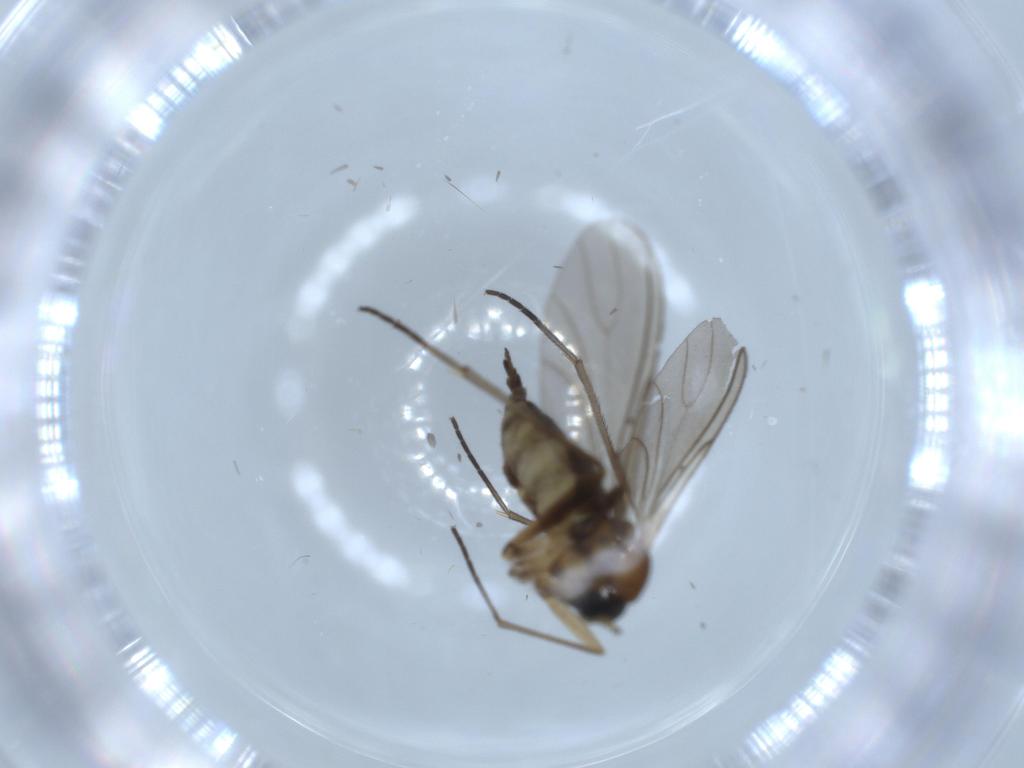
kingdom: Animalia
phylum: Arthropoda
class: Insecta
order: Diptera
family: Sciaridae
